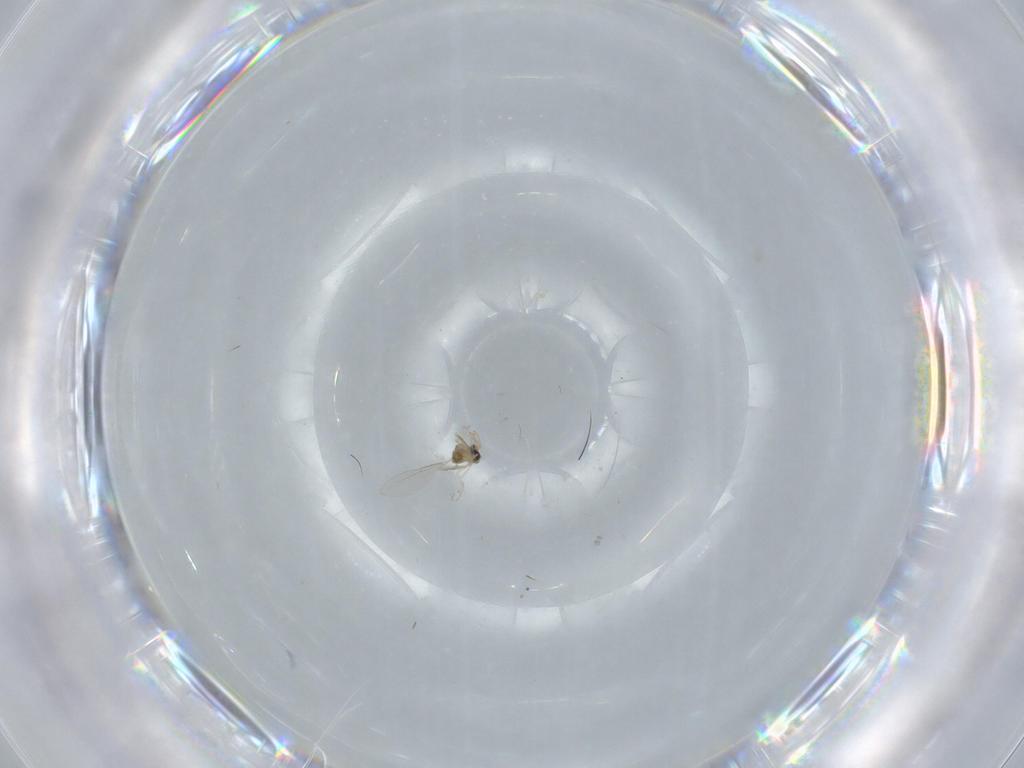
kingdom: Animalia
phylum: Arthropoda
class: Insecta
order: Diptera
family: Cecidomyiidae
